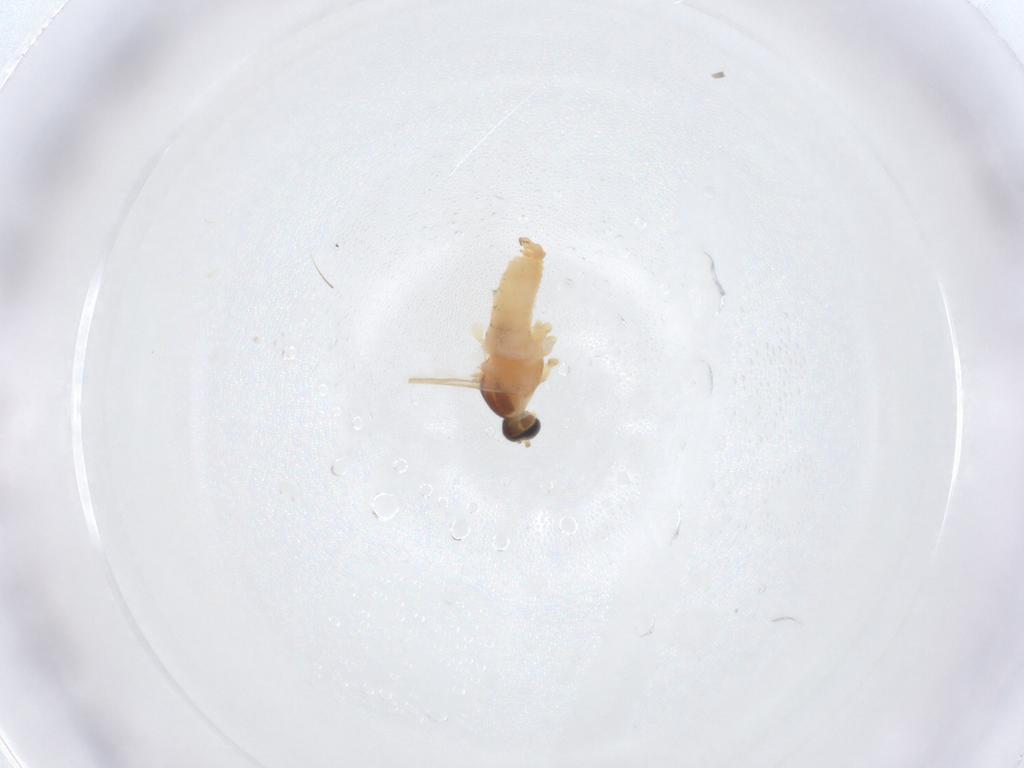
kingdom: Animalia
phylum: Arthropoda
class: Insecta
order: Diptera
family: Cecidomyiidae
